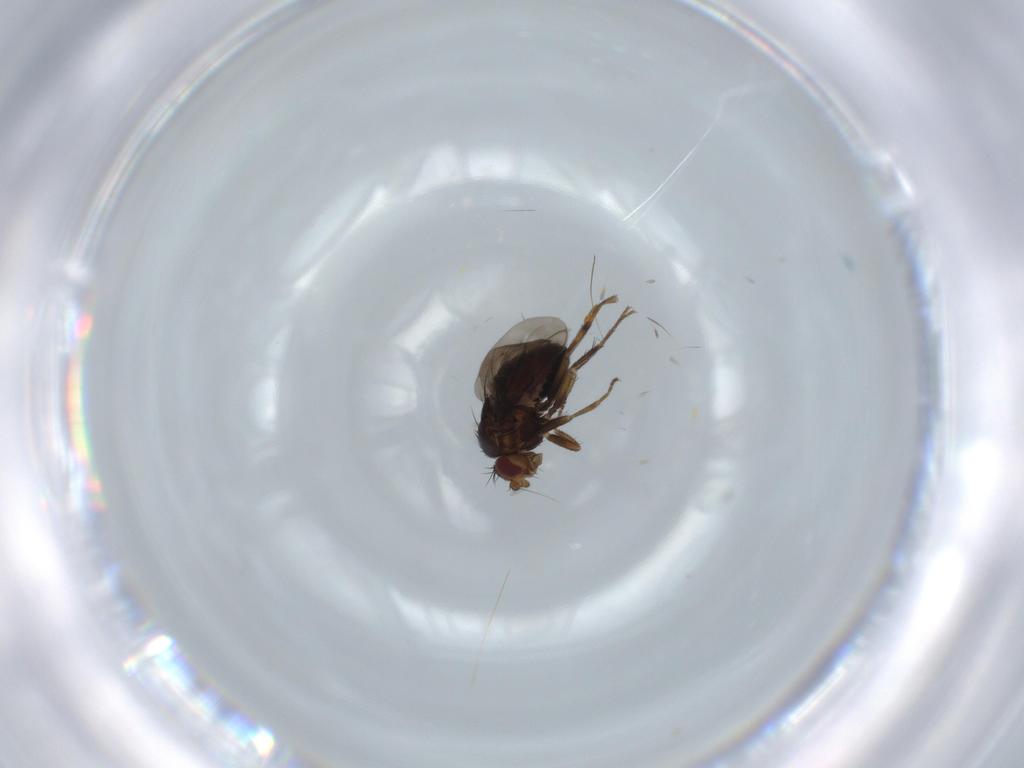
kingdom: Animalia
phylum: Arthropoda
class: Insecta
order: Diptera
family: Sphaeroceridae
